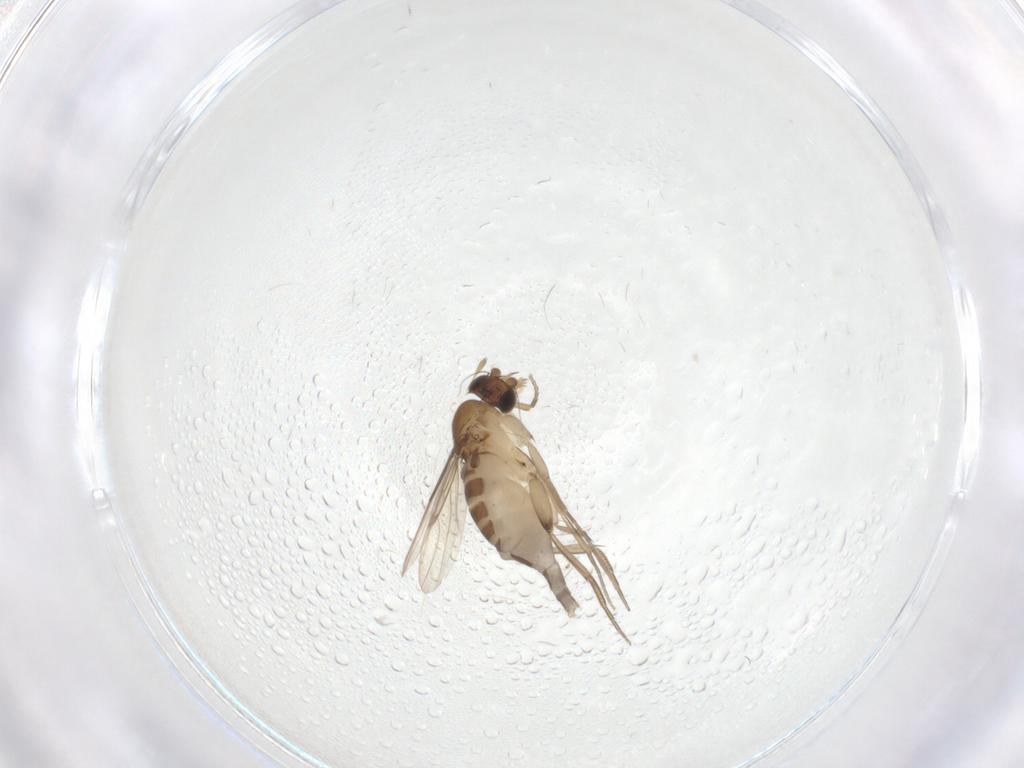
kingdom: Animalia
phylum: Arthropoda
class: Insecta
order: Diptera
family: Phoridae
